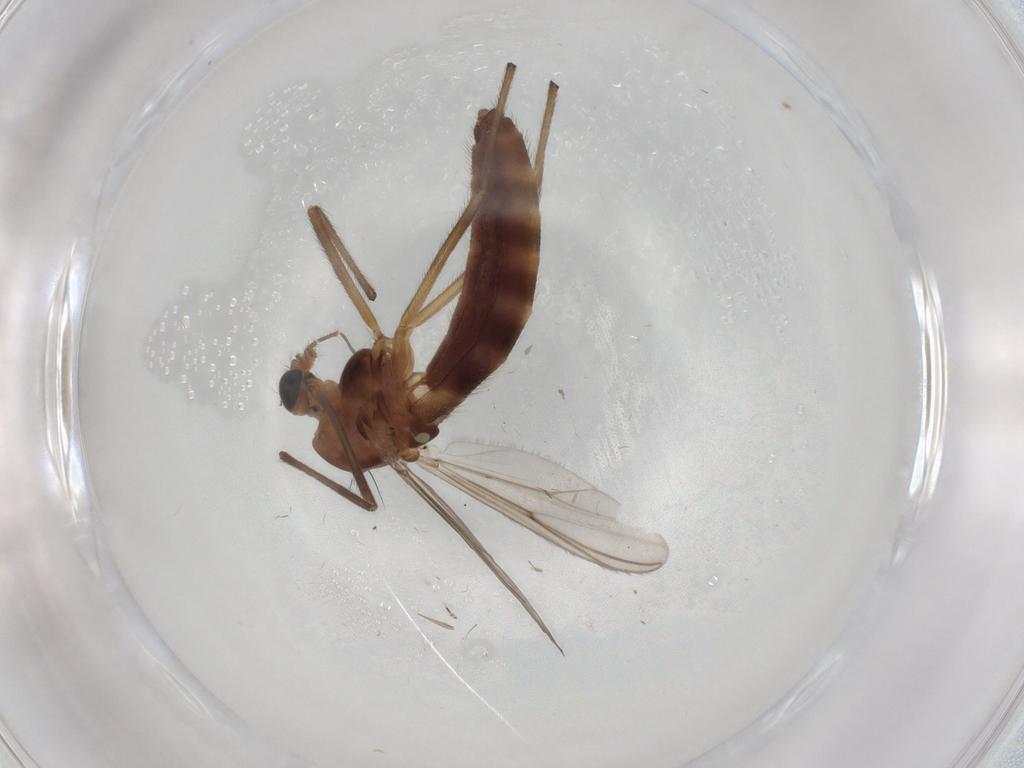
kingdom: Animalia
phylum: Arthropoda
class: Insecta
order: Diptera
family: Chironomidae
